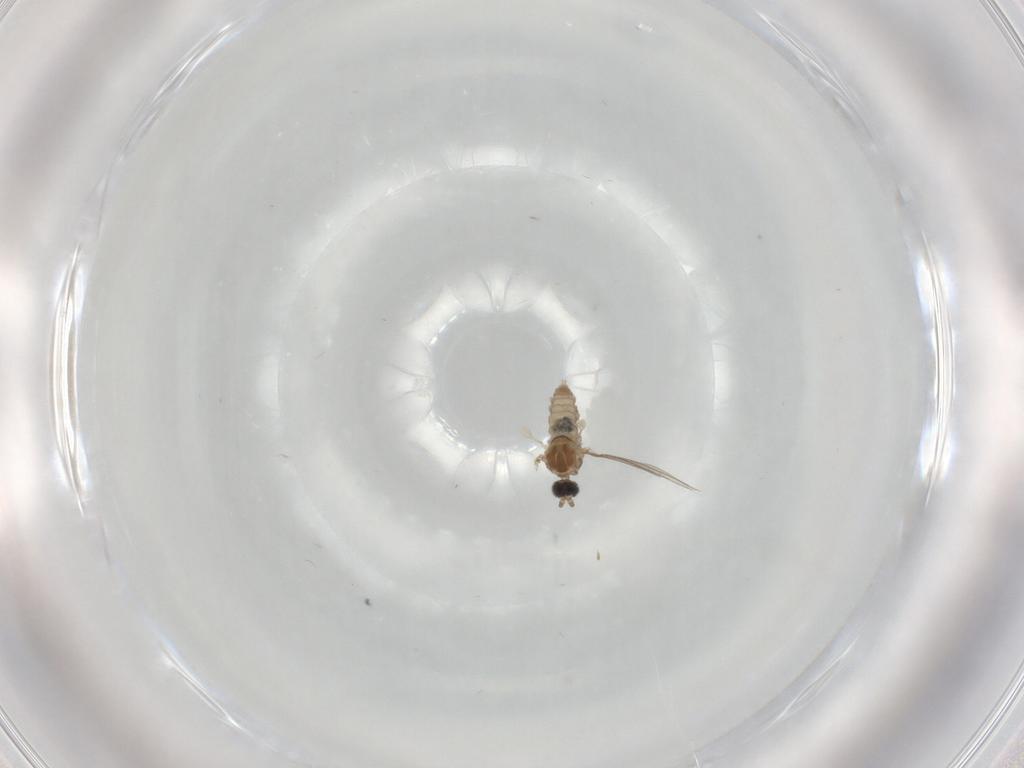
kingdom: Animalia
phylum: Arthropoda
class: Insecta
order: Diptera
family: Cecidomyiidae
